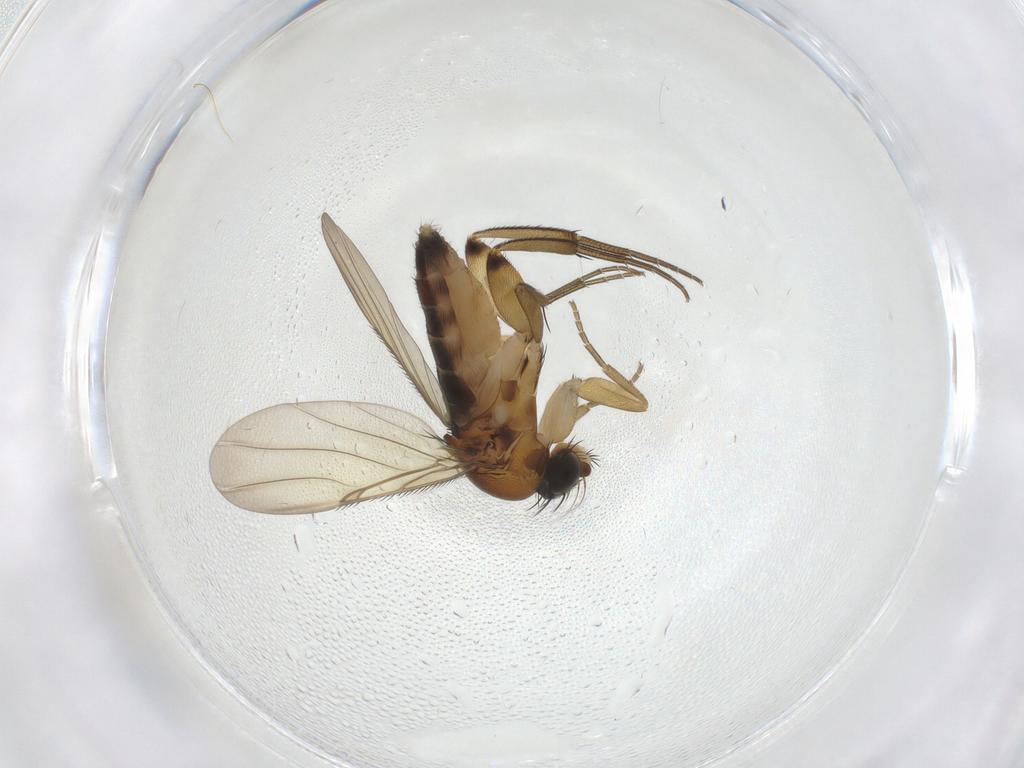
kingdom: Animalia
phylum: Arthropoda
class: Insecta
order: Diptera
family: Phoridae
